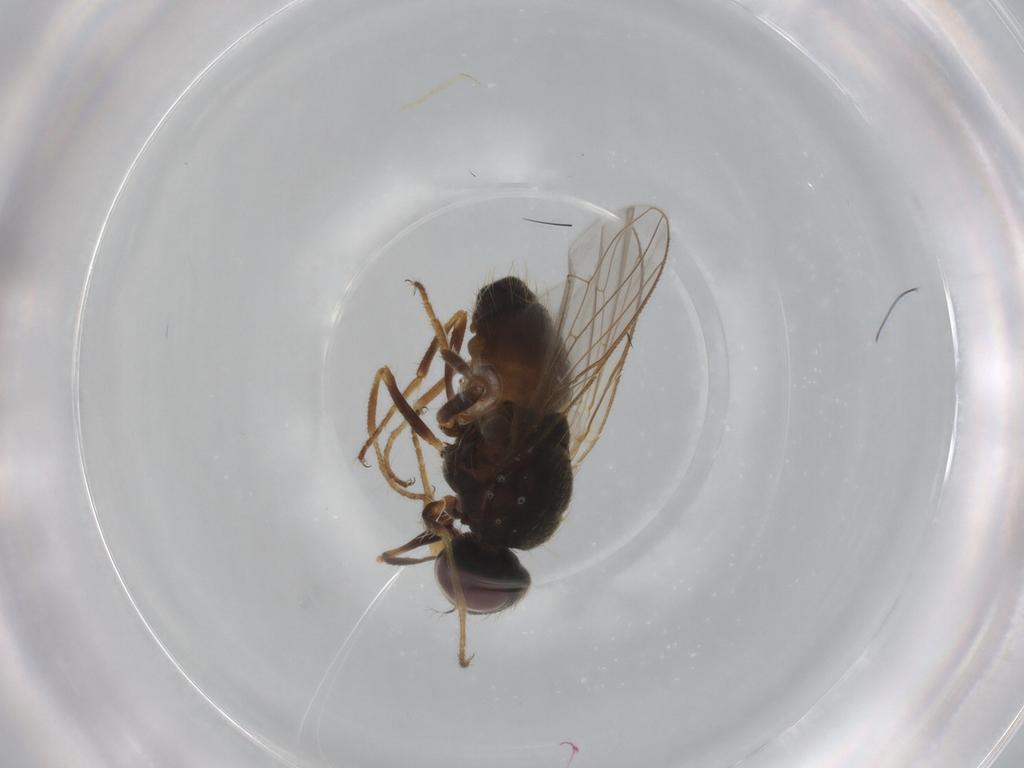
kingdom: Animalia
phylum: Arthropoda
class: Insecta
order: Diptera
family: Muscidae
